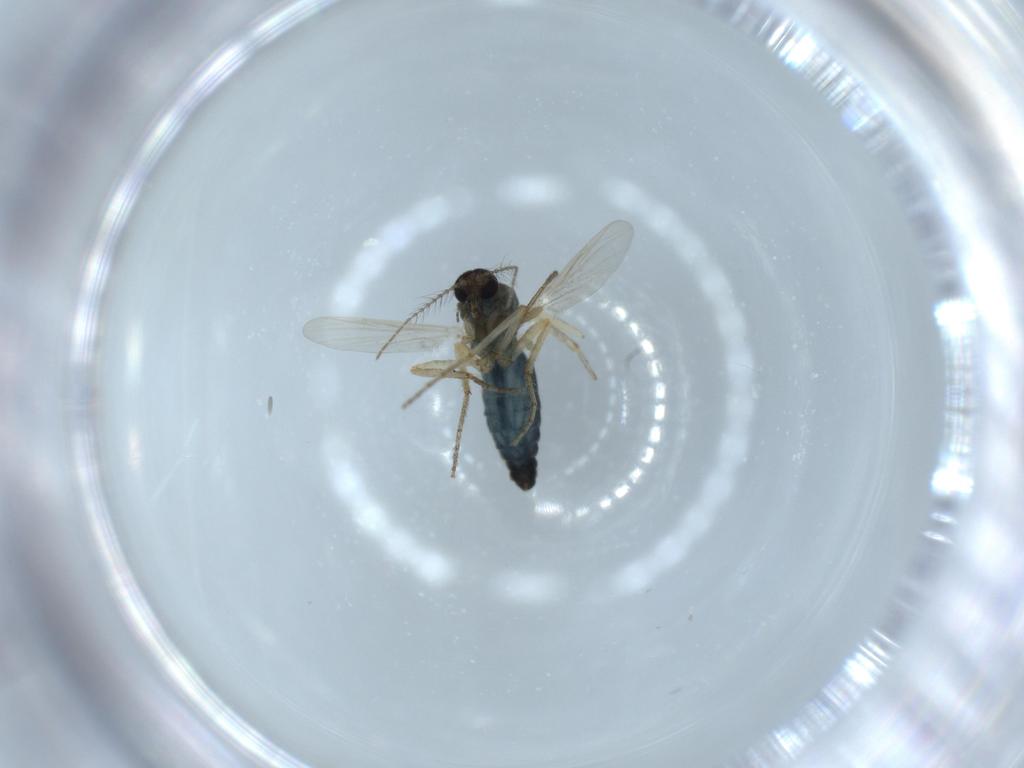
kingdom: Animalia
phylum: Arthropoda
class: Insecta
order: Diptera
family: Ceratopogonidae
